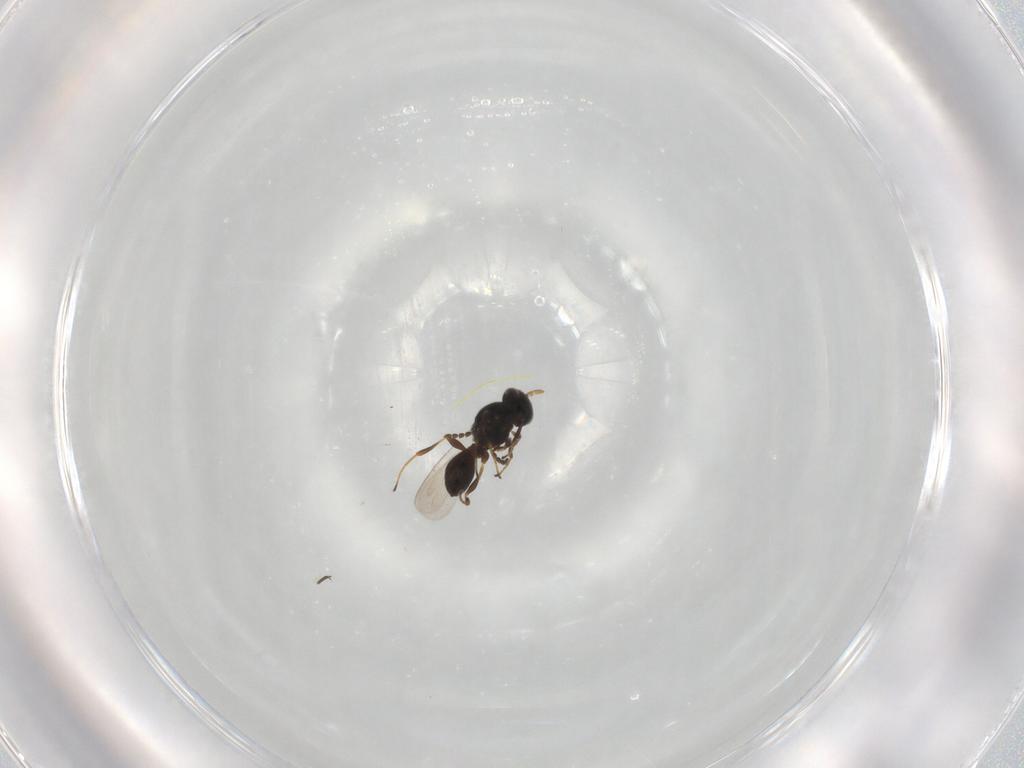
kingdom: Animalia
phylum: Arthropoda
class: Insecta
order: Hymenoptera
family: Platygastridae
